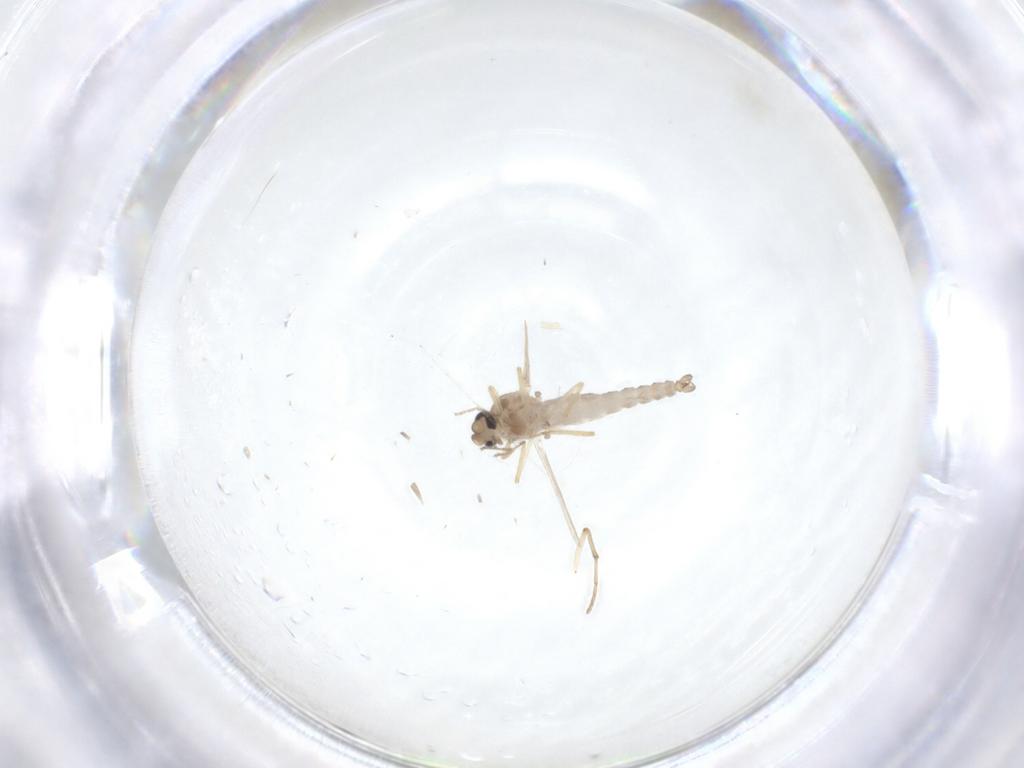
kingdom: Animalia
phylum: Arthropoda
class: Insecta
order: Diptera
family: Ceratopogonidae
